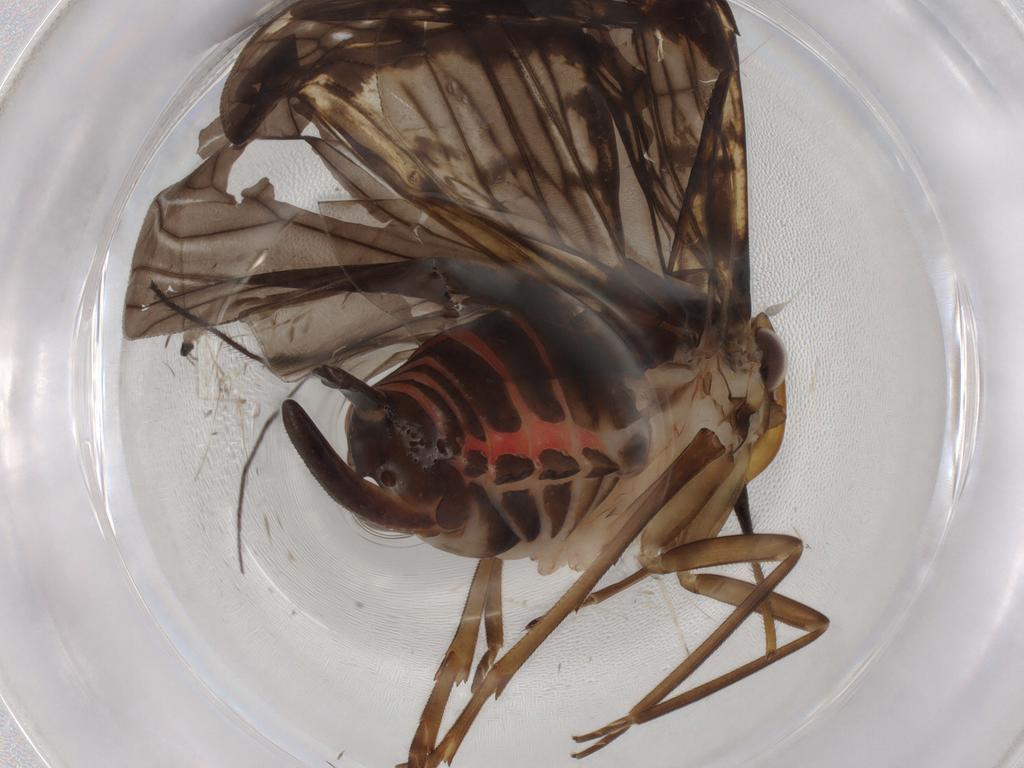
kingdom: Animalia
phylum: Arthropoda
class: Insecta
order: Hemiptera
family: Cixiidae
